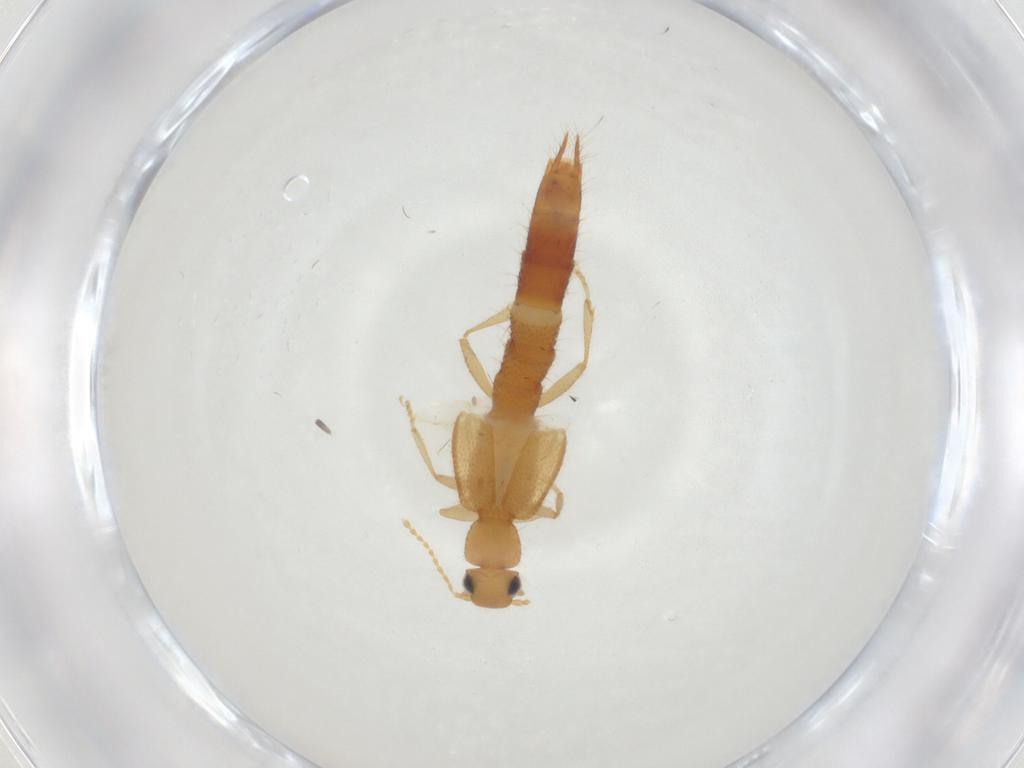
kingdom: Animalia
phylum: Arthropoda
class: Insecta
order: Coleoptera
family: Staphylinidae
